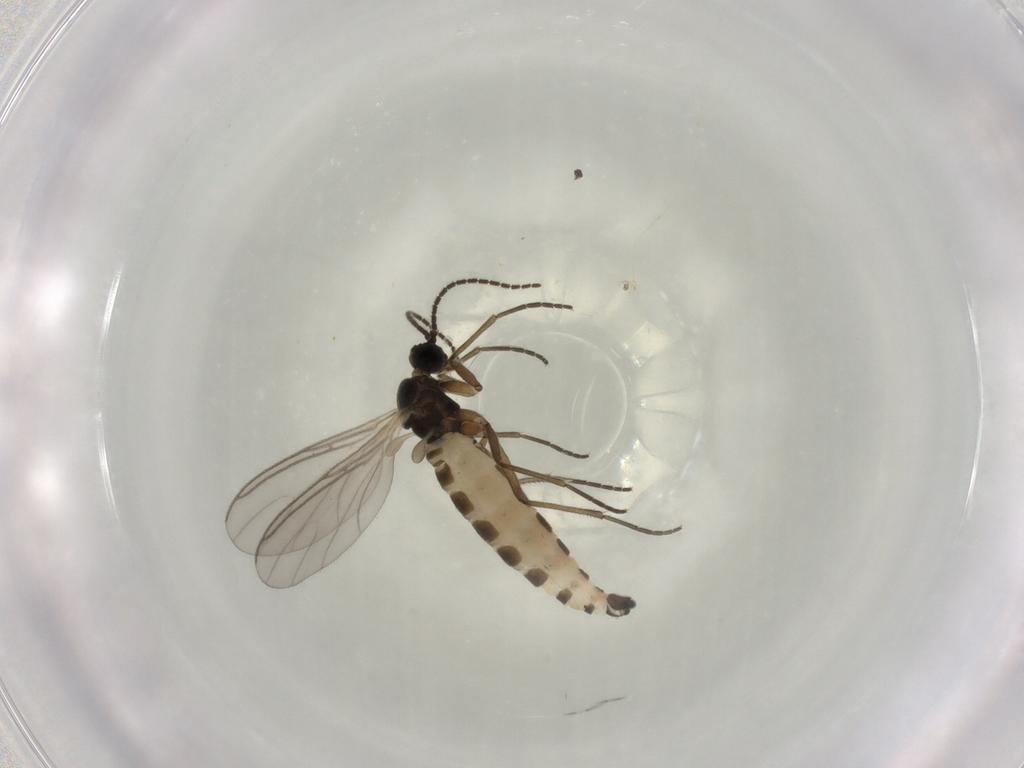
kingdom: Animalia
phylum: Arthropoda
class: Insecta
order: Diptera
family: Sciaridae
